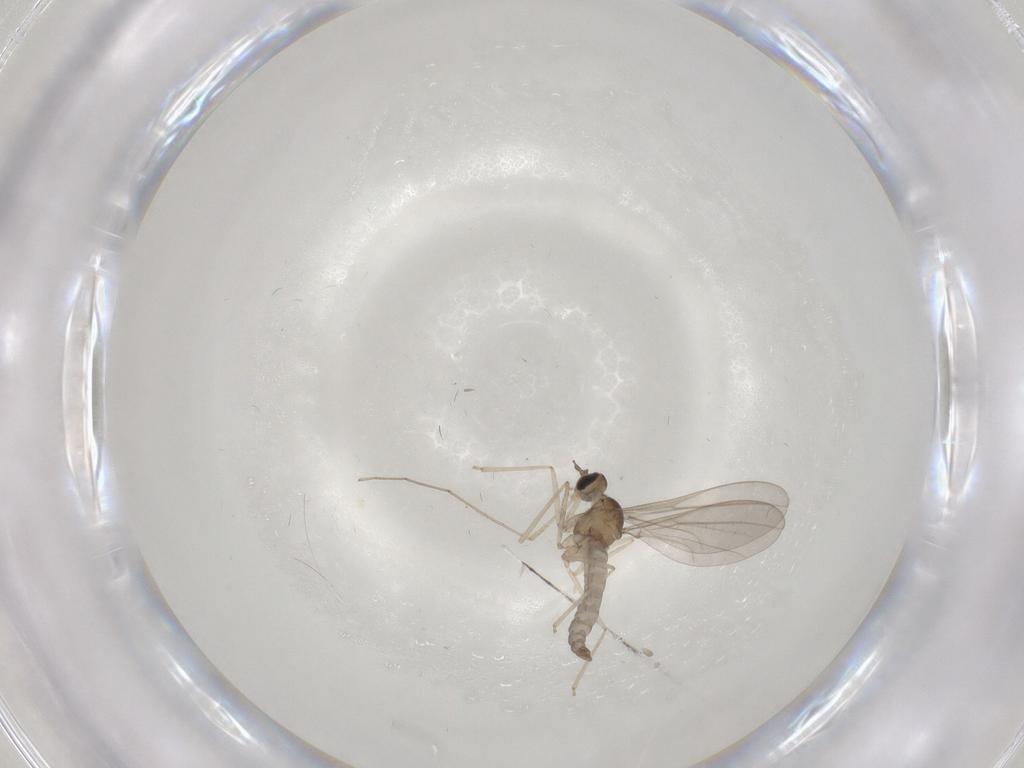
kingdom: Animalia
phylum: Arthropoda
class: Insecta
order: Diptera
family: Cecidomyiidae
